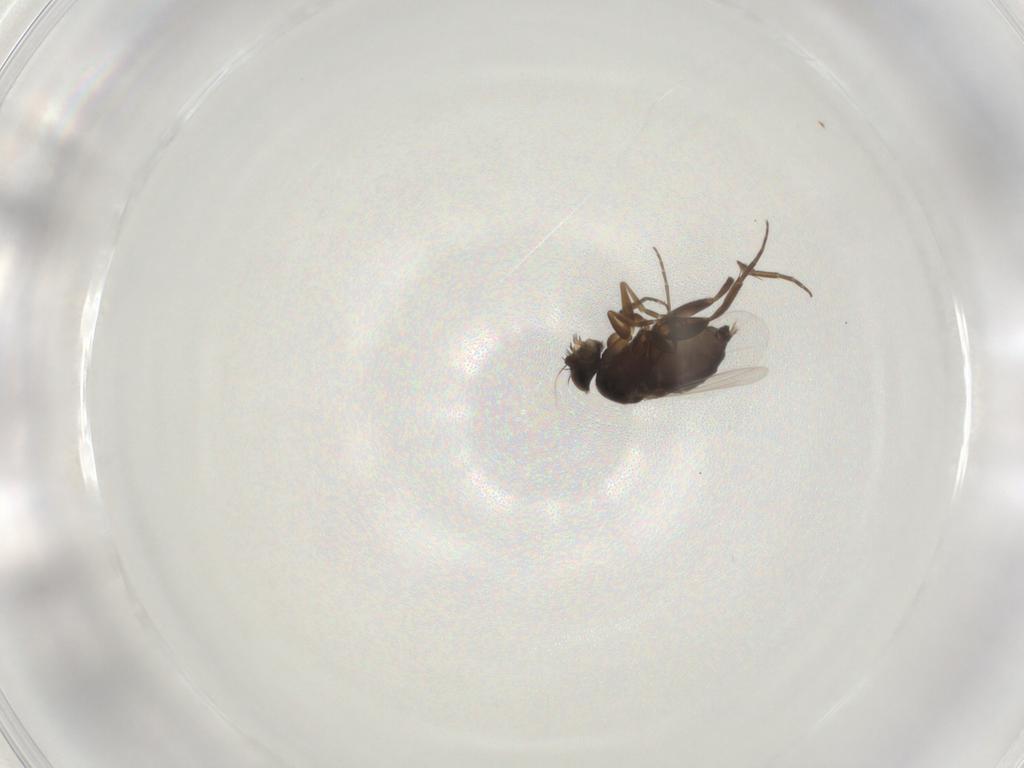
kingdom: Animalia
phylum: Arthropoda
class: Insecta
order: Diptera
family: Phoridae
